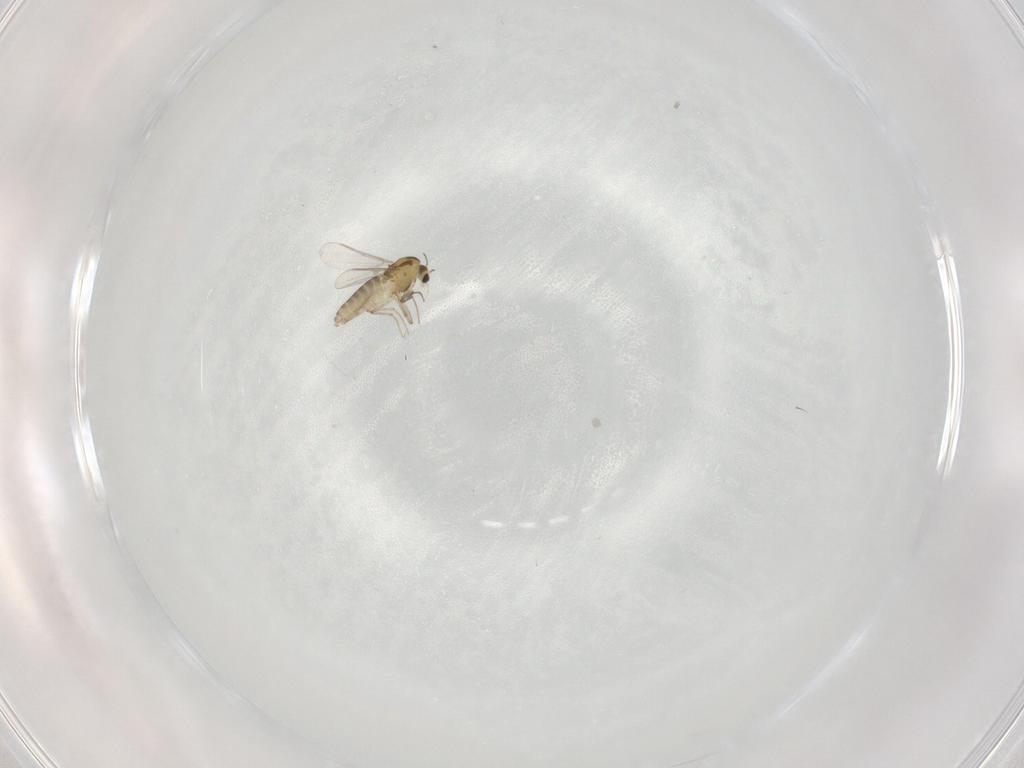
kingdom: Animalia
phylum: Arthropoda
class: Insecta
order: Diptera
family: Chironomidae
